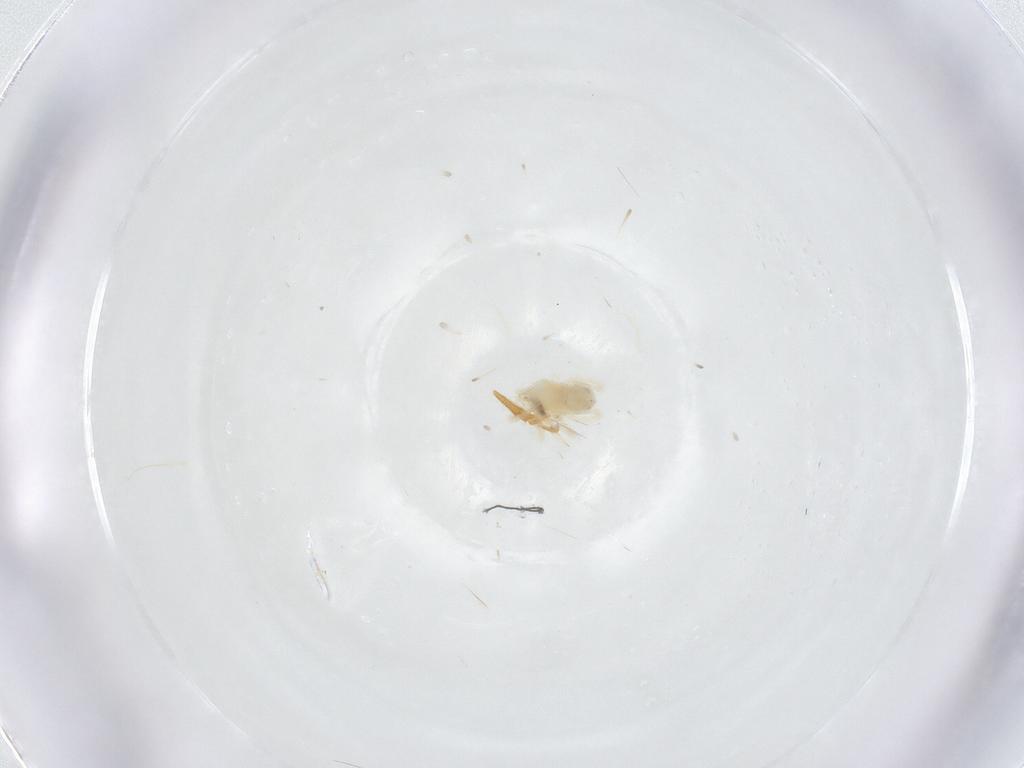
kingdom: Animalia
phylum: Arthropoda
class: Arachnida
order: Trombidiformes
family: Anystidae
